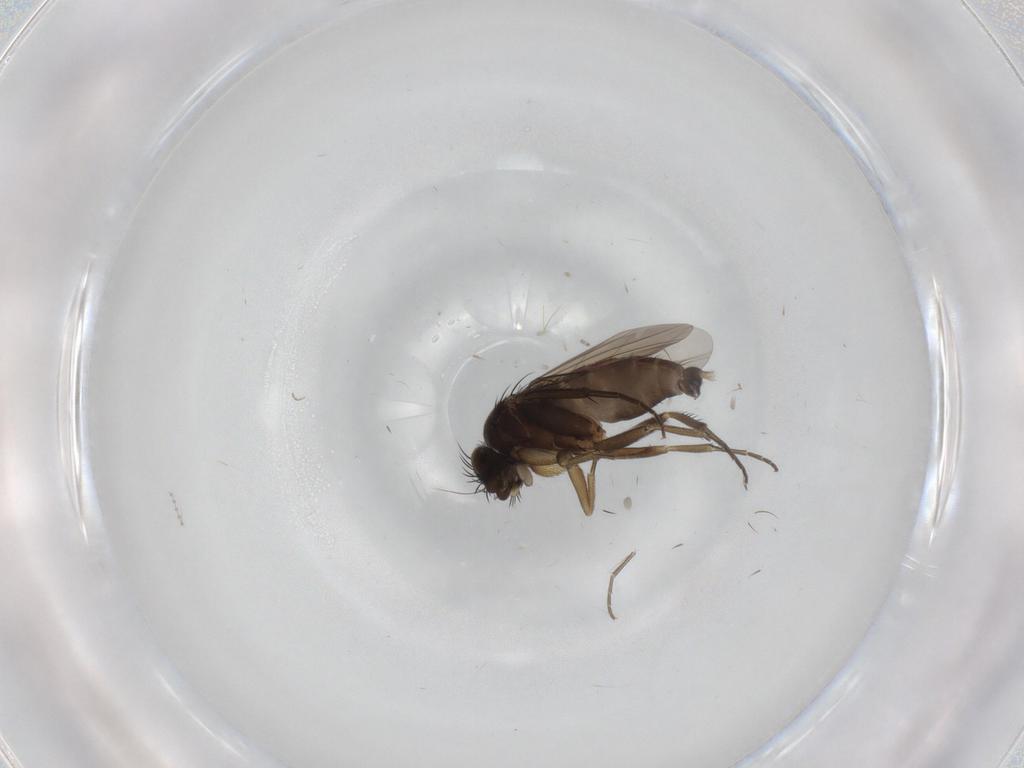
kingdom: Animalia
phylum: Arthropoda
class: Insecta
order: Diptera
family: Phoridae
